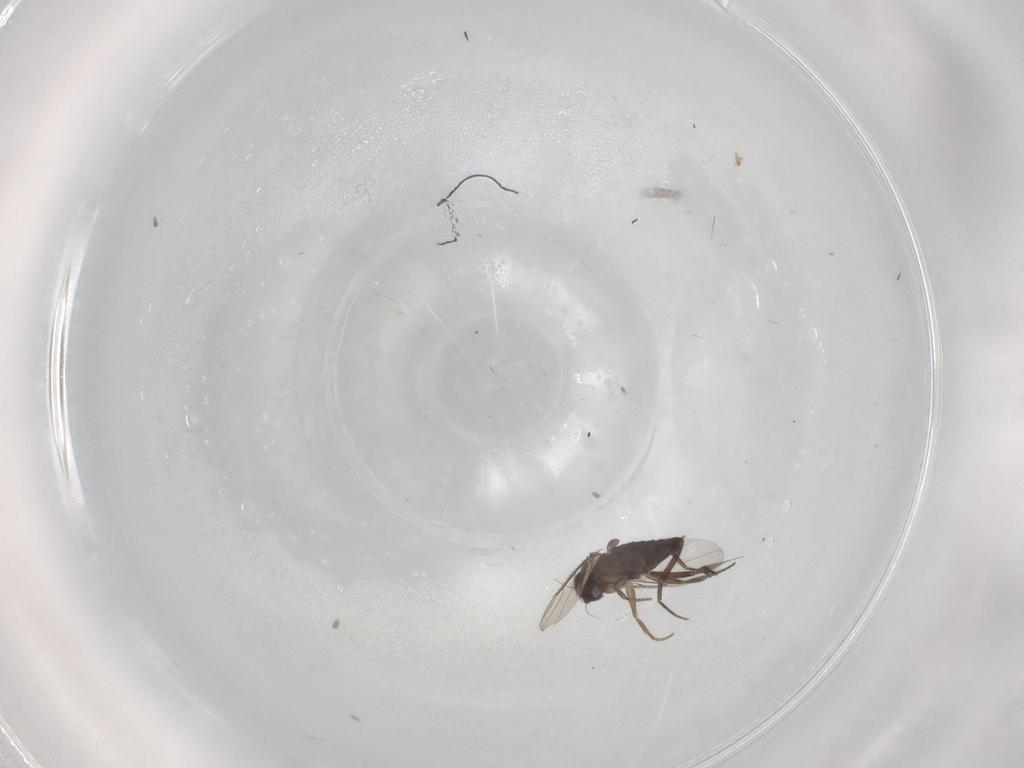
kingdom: Animalia
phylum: Arthropoda
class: Insecta
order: Diptera
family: Phoridae
